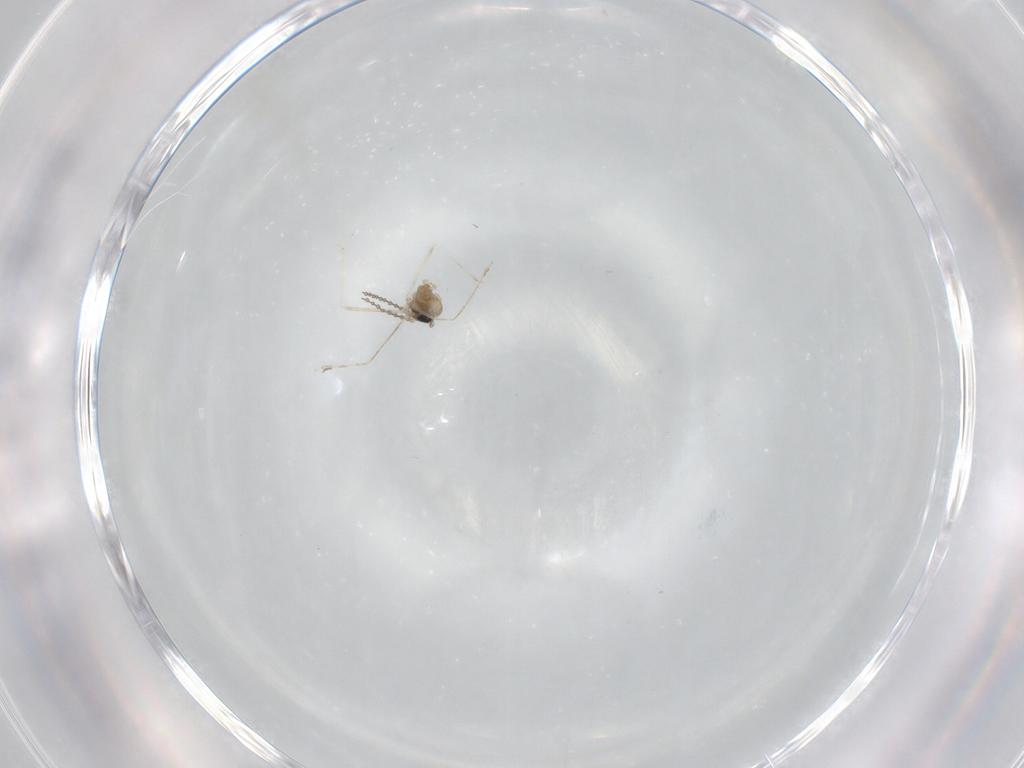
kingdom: Animalia
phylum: Arthropoda
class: Insecta
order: Diptera
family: Cecidomyiidae
